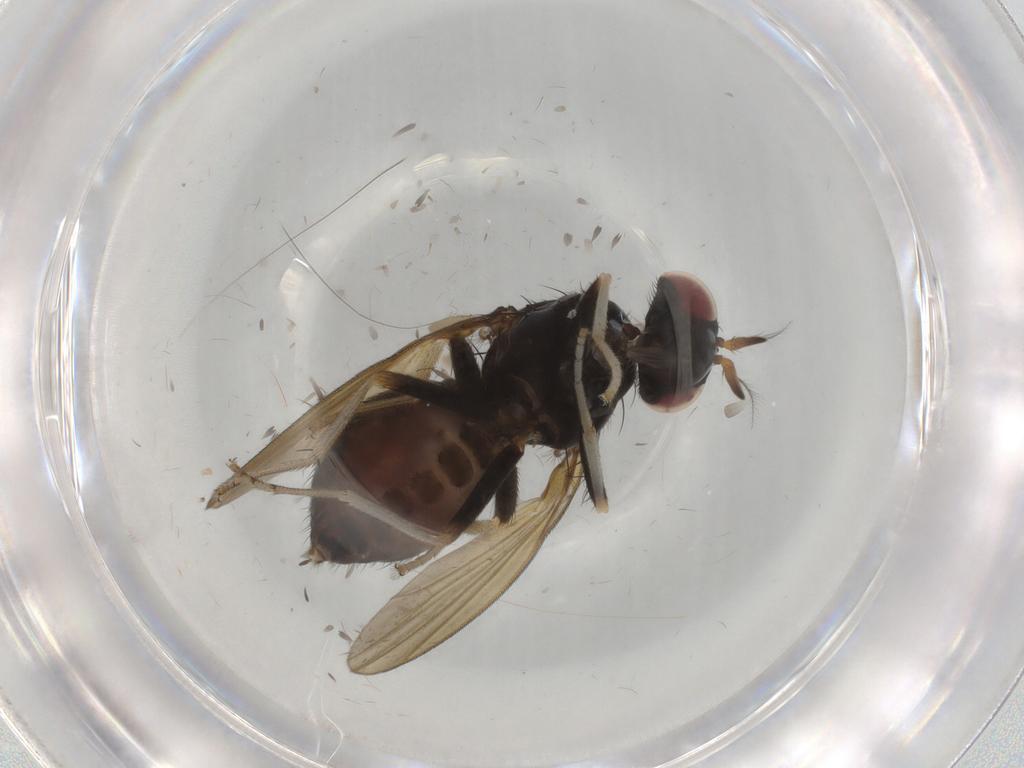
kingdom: Animalia
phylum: Arthropoda
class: Insecta
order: Diptera
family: Lauxaniidae
